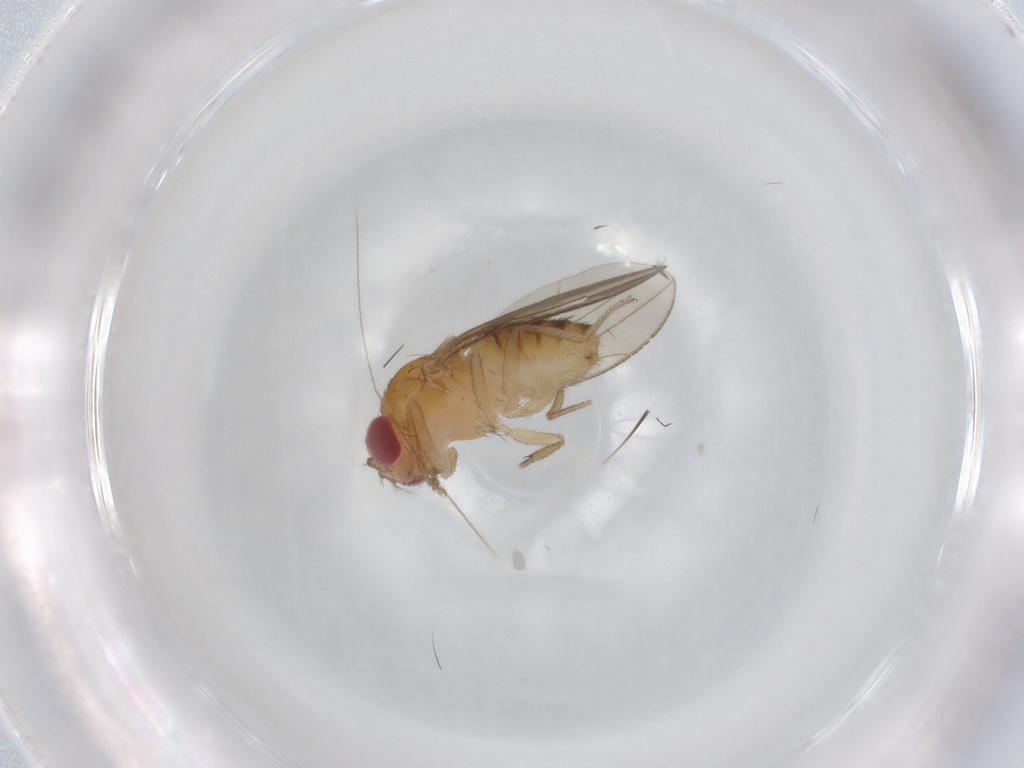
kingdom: Animalia
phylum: Arthropoda
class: Insecta
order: Diptera
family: Drosophilidae
